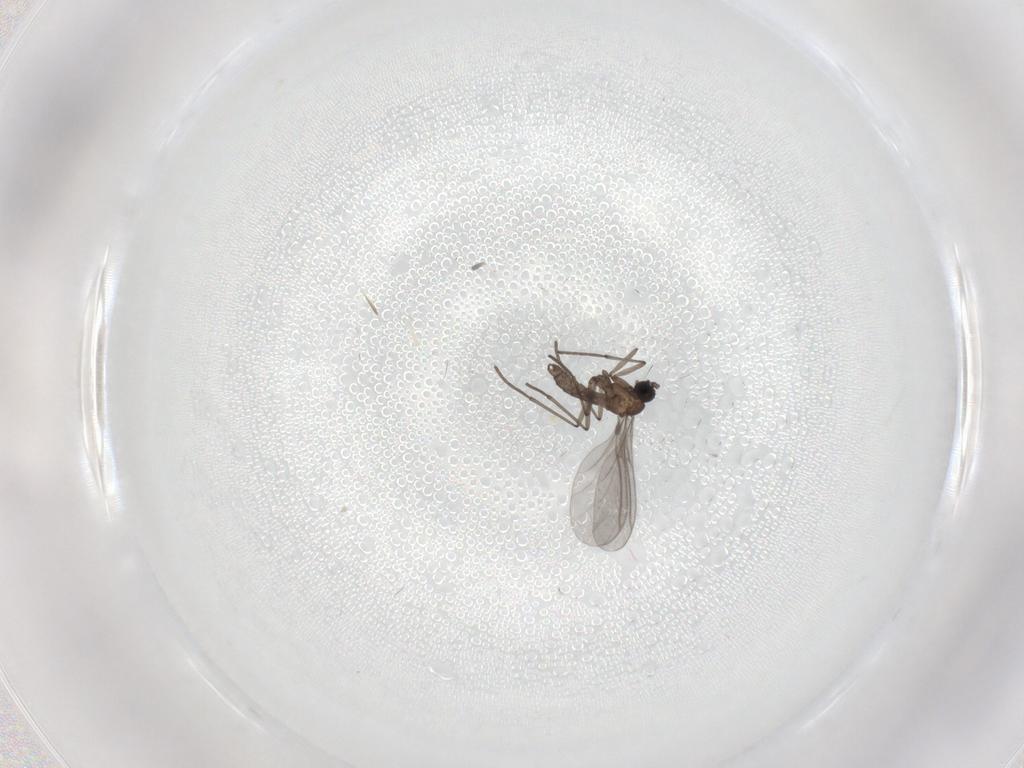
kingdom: Animalia
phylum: Arthropoda
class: Insecta
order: Diptera
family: Sciaridae
